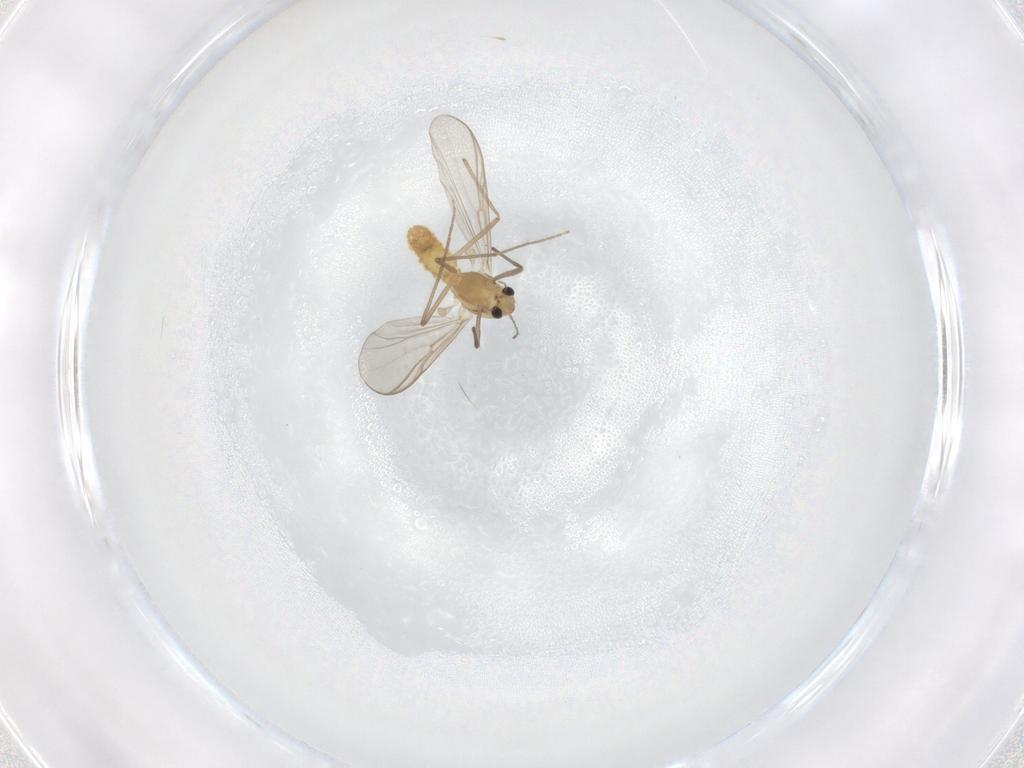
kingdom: Animalia
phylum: Arthropoda
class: Insecta
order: Diptera
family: Chironomidae
